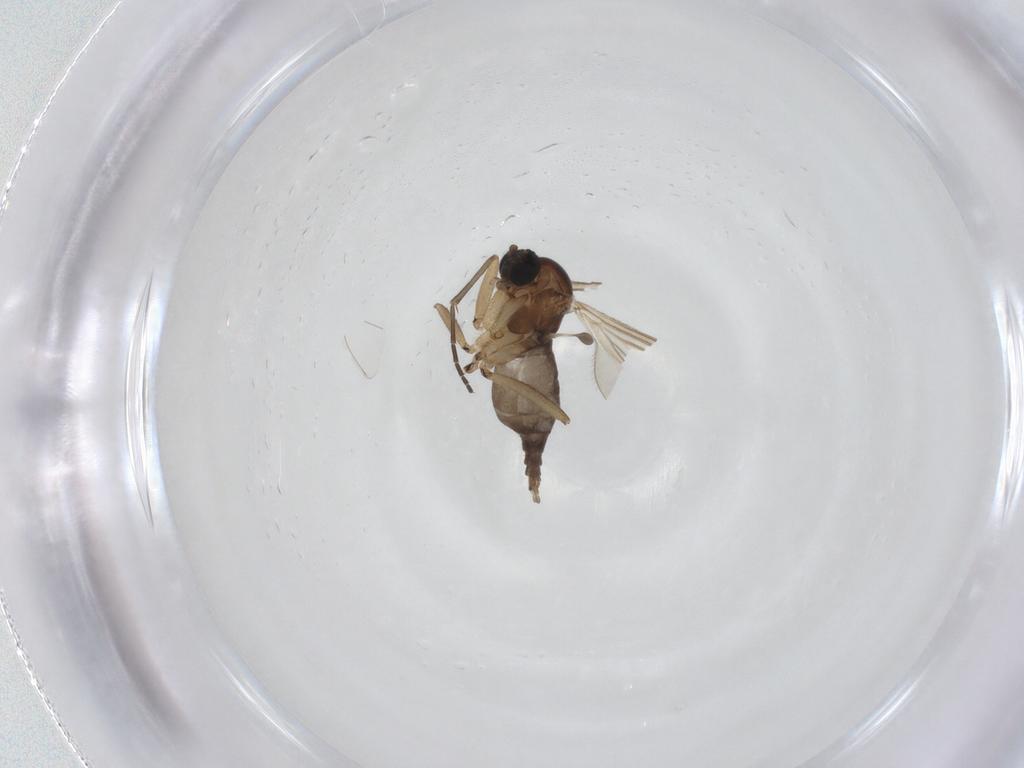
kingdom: Animalia
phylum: Arthropoda
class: Insecta
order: Diptera
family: Sciaridae
